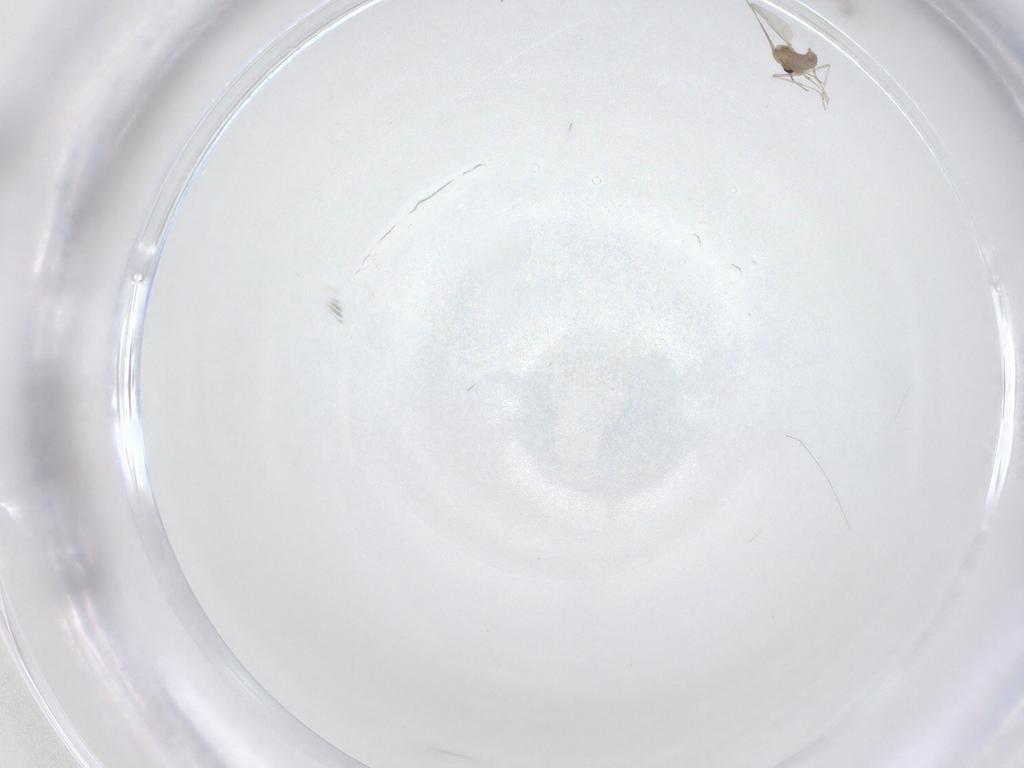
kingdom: Animalia
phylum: Arthropoda
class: Insecta
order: Diptera
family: Ceratopogonidae
